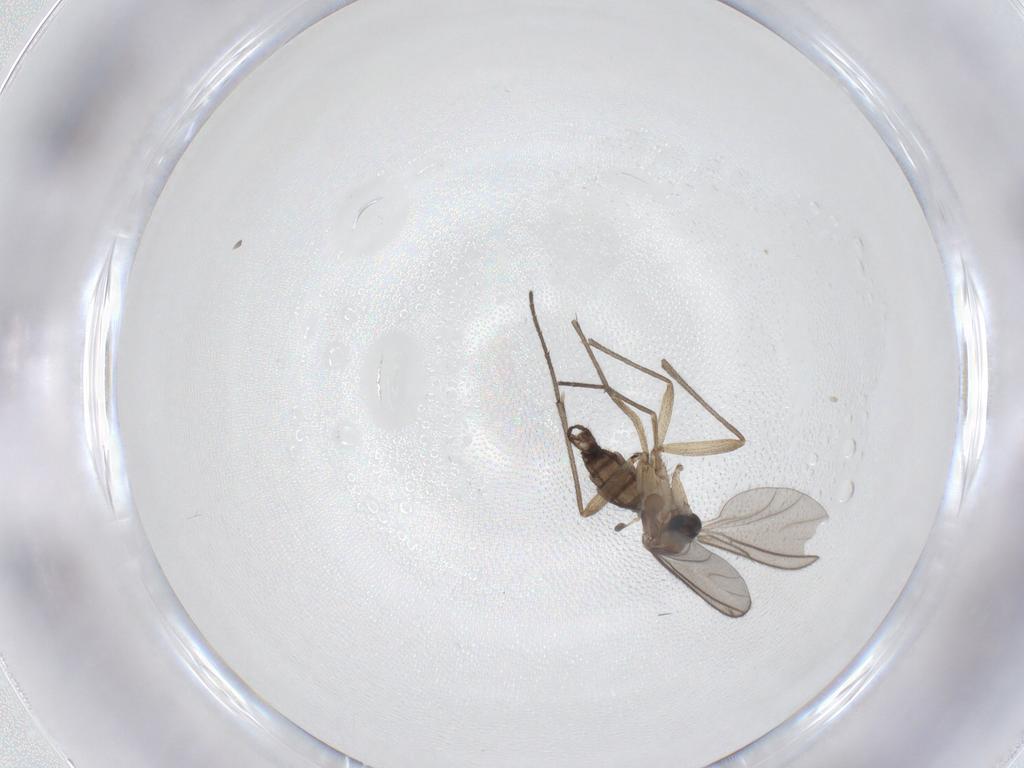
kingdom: Animalia
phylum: Arthropoda
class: Insecta
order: Diptera
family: Sciaridae
